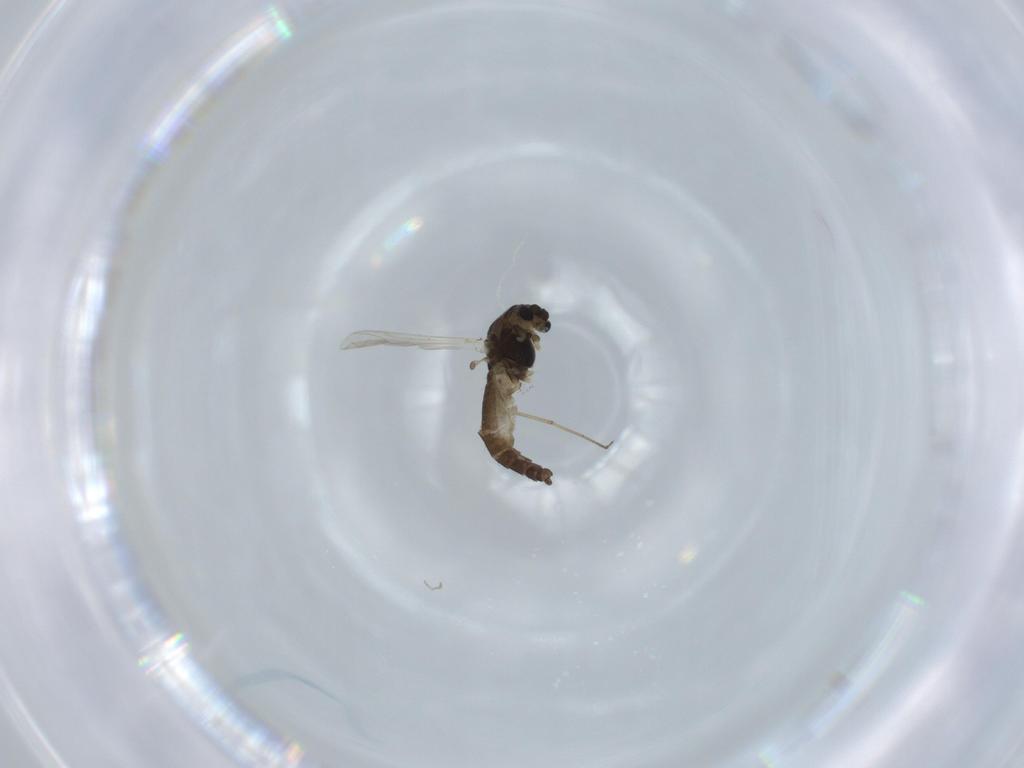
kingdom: Animalia
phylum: Arthropoda
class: Insecta
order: Diptera
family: Chironomidae
